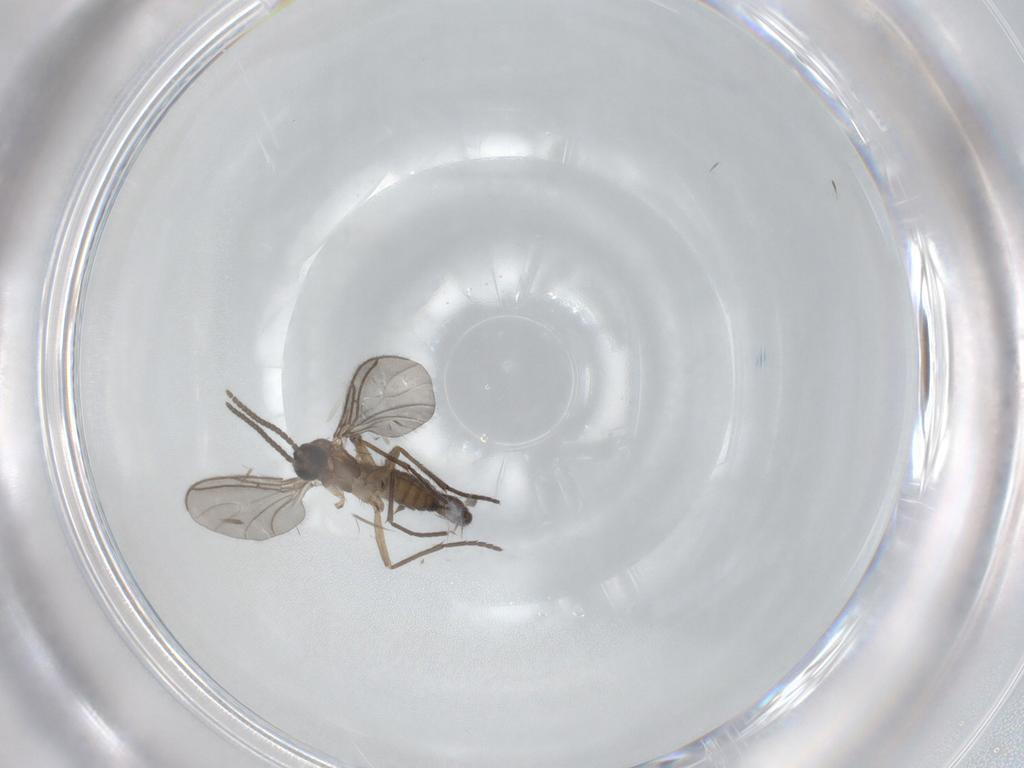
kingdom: Animalia
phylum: Arthropoda
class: Insecta
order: Diptera
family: Sciaridae
